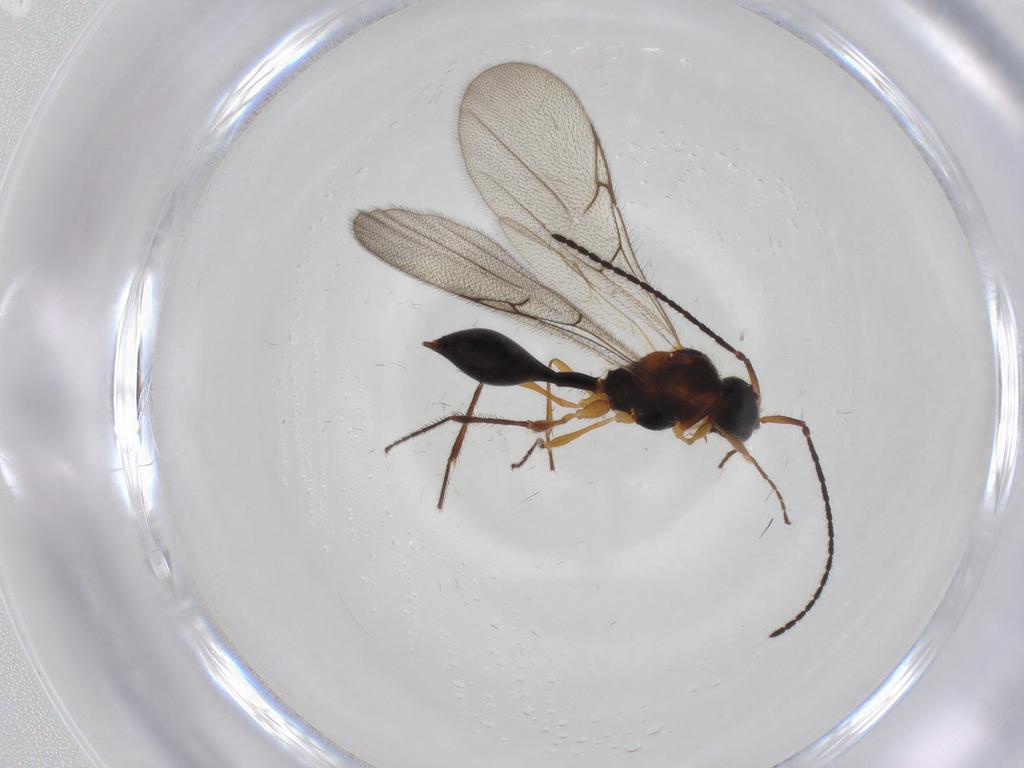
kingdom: Animalia
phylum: Arthropoda
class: Insecta
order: Hymenoptera
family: Diapriidae
